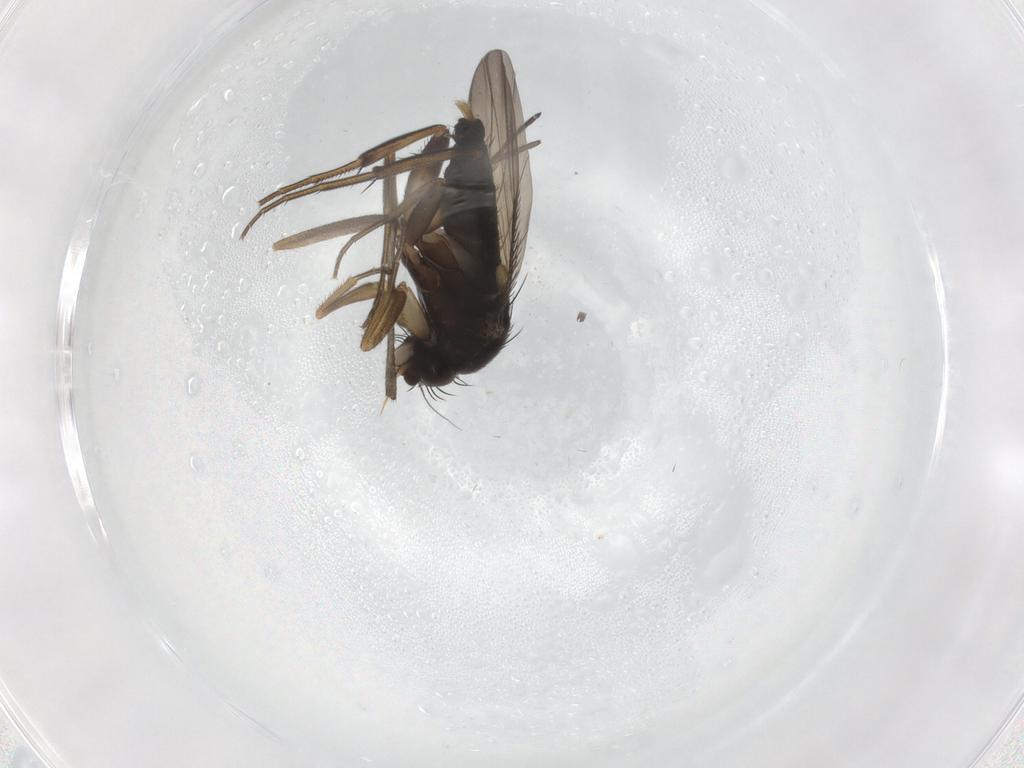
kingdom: Animalia
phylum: Arthropoda
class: Insecta
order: Diptera
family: Phoridae
